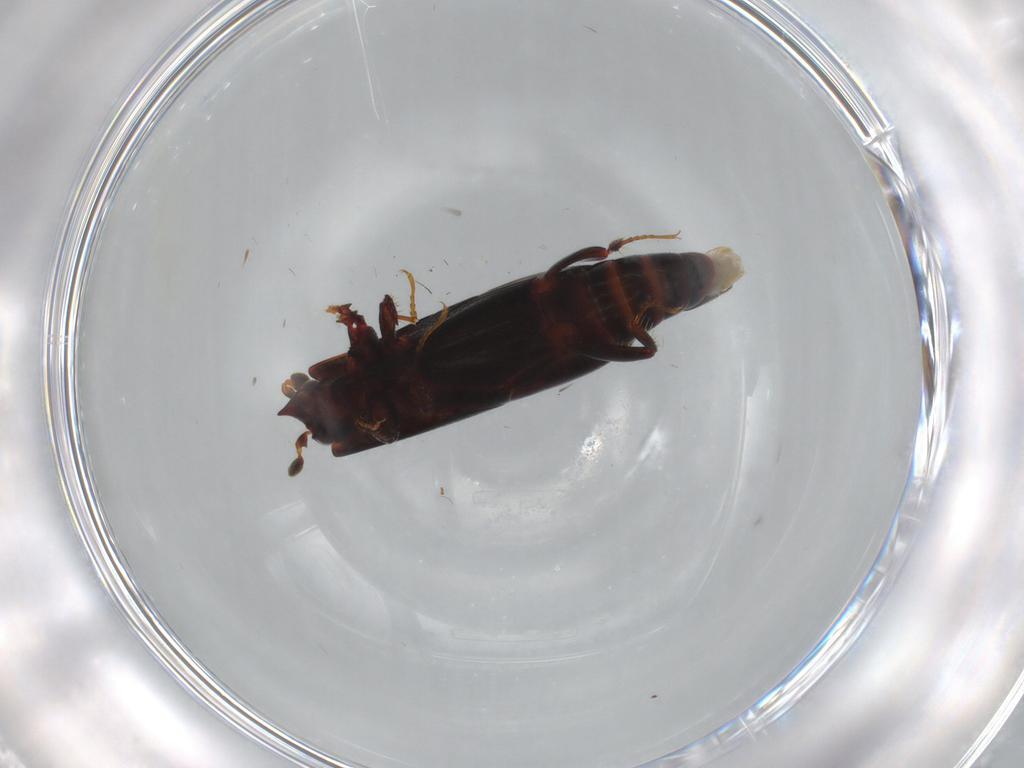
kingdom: Animalia
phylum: Arthropoda
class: Insecta
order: Coleoptera
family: Histeridae
